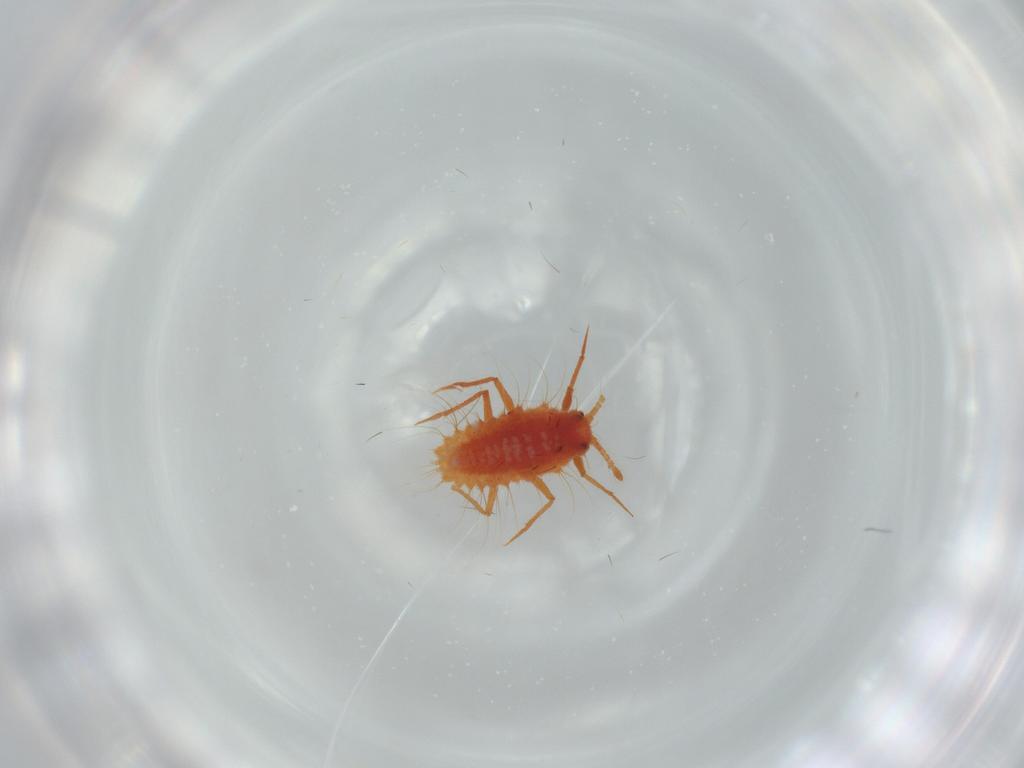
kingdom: Animalia
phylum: Arthropoda
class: Insecta
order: Hemiptera
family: Monophlebidae
